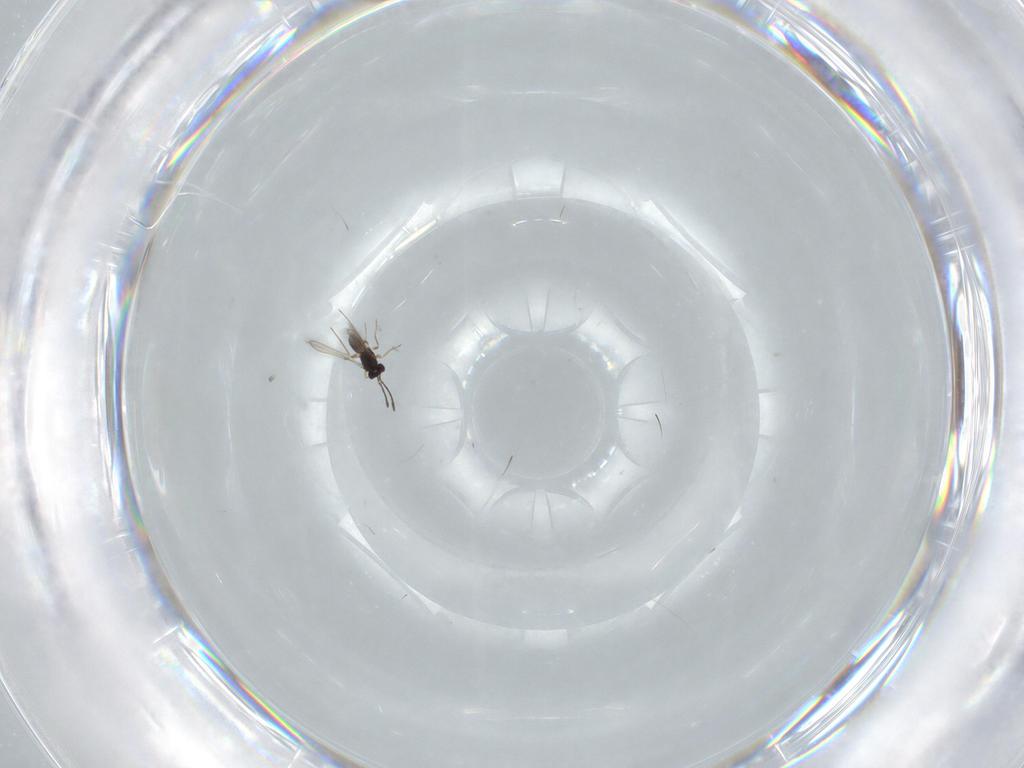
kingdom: Animalia
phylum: Arthropoda
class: Insecta
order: Hymenoptera
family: Mymaridae
